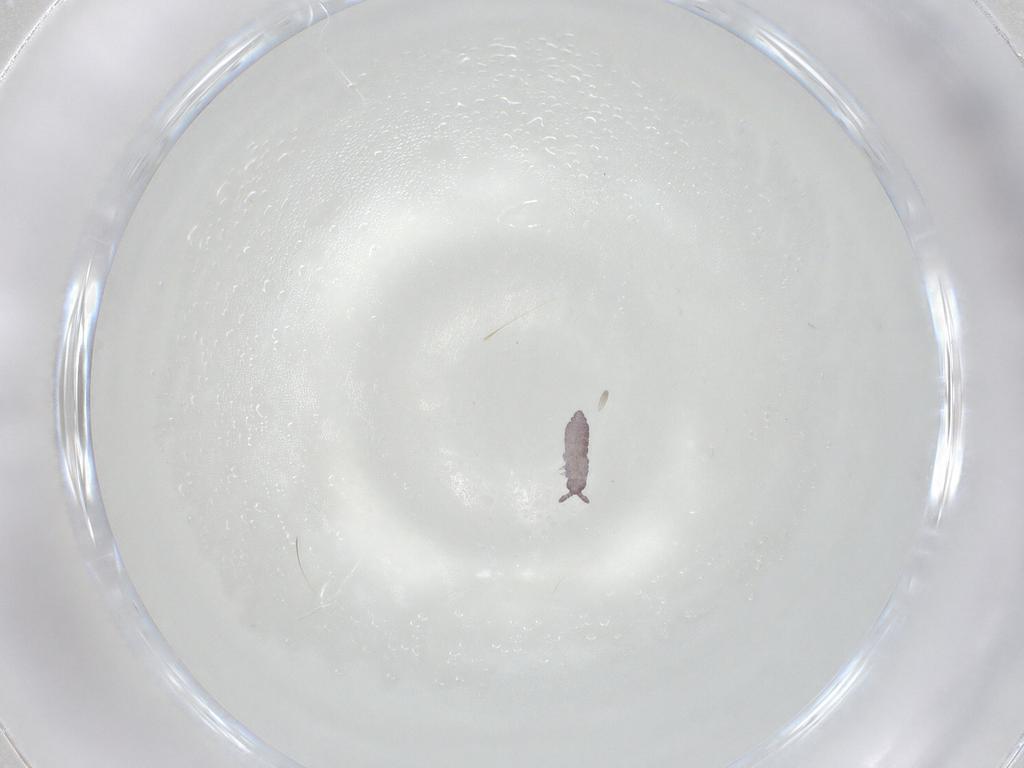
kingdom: Animalia
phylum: Arthropoda
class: Collembola
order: Poduromorpha
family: Hypogastruridae
